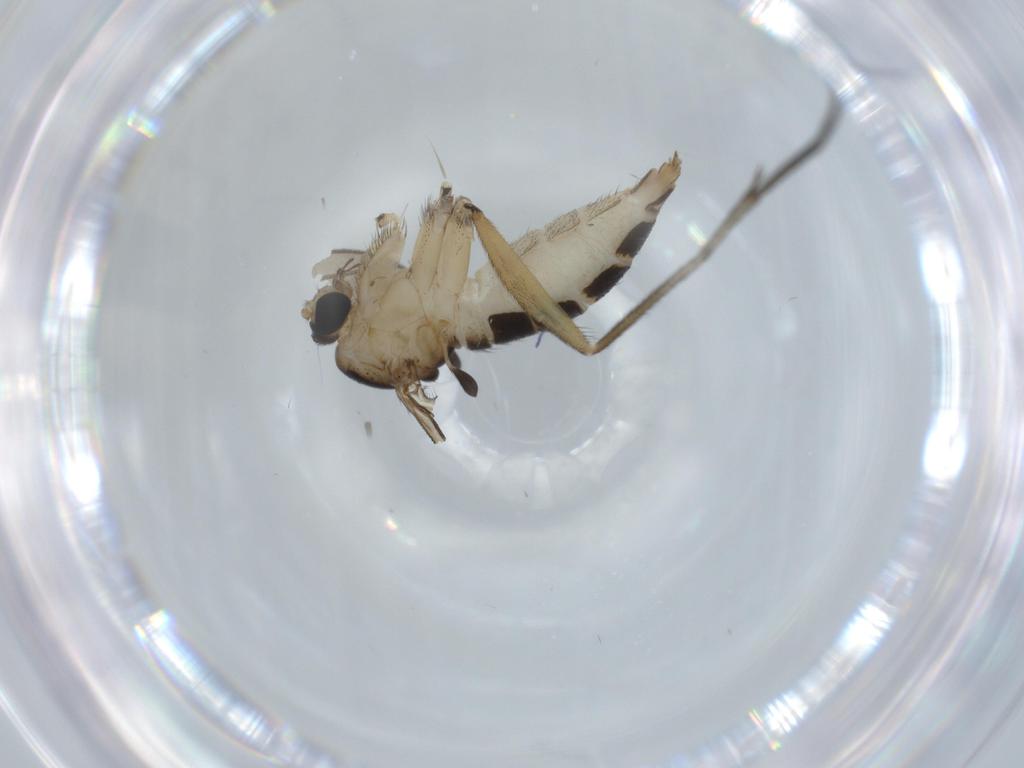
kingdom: Animalia
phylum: Arthropoda
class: Insecta
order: Diptera
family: Sciaridae
